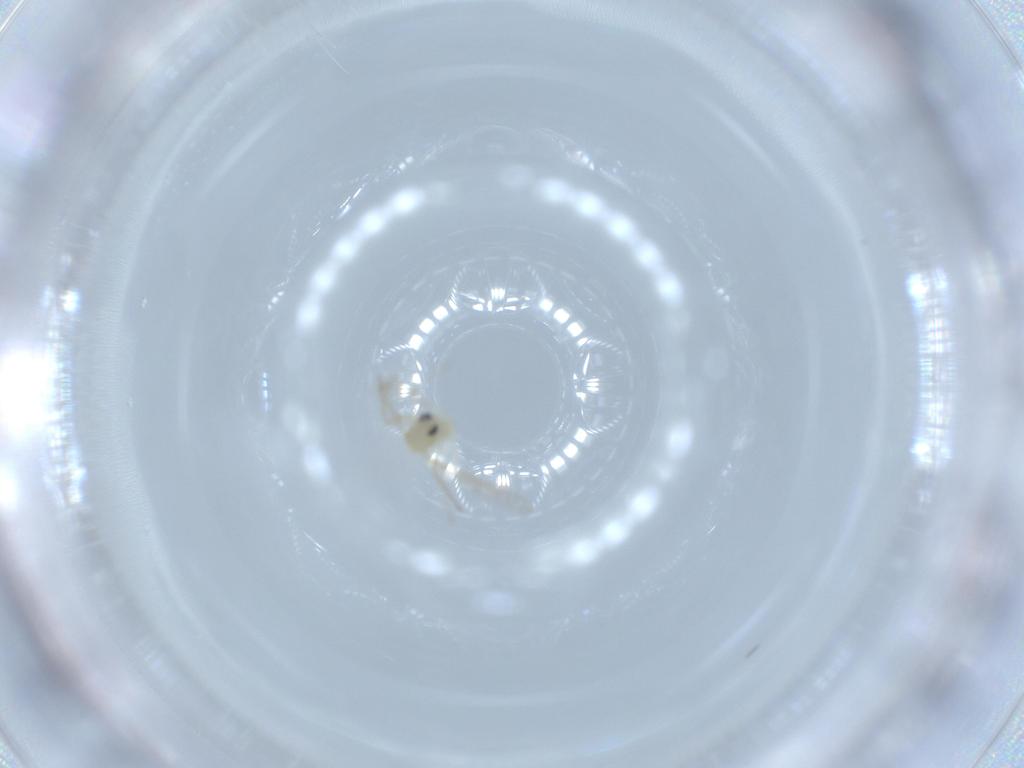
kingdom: Animalia
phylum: Arthropoda
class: Insecta
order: Diptera
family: Chironomidae
